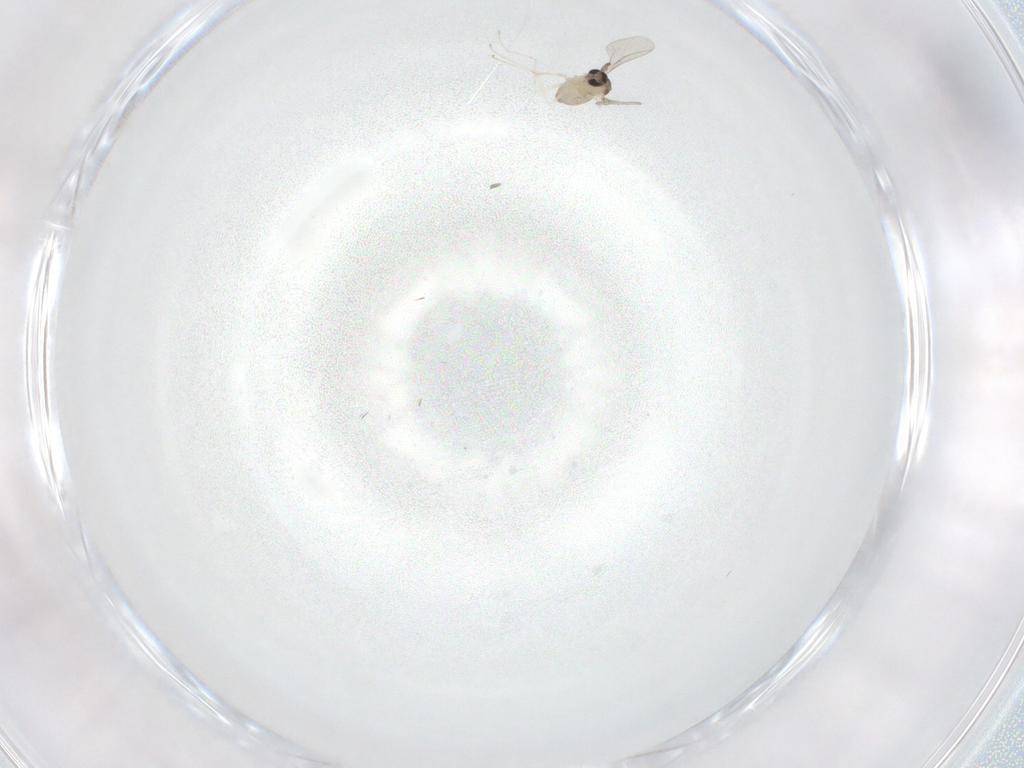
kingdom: Animalia
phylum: Arthropoda
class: Insecta
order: Diptera
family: Cecidomyiidae
